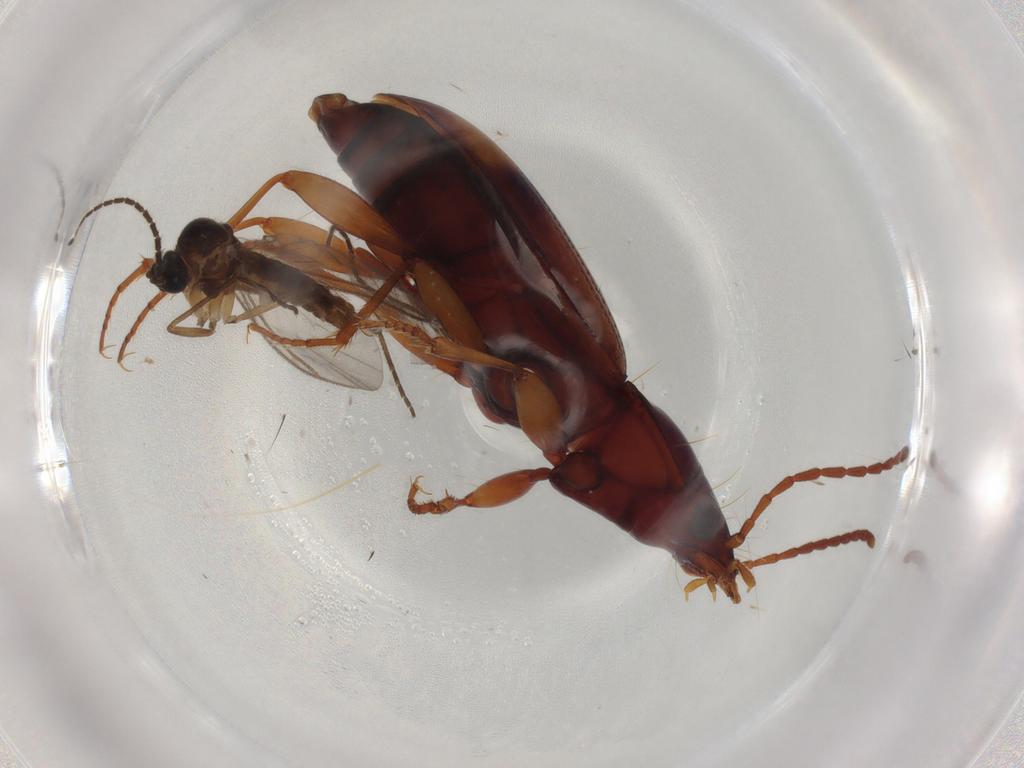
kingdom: Animalia
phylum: Arthropoda
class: Insecta
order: Diptera
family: Sciaridae
